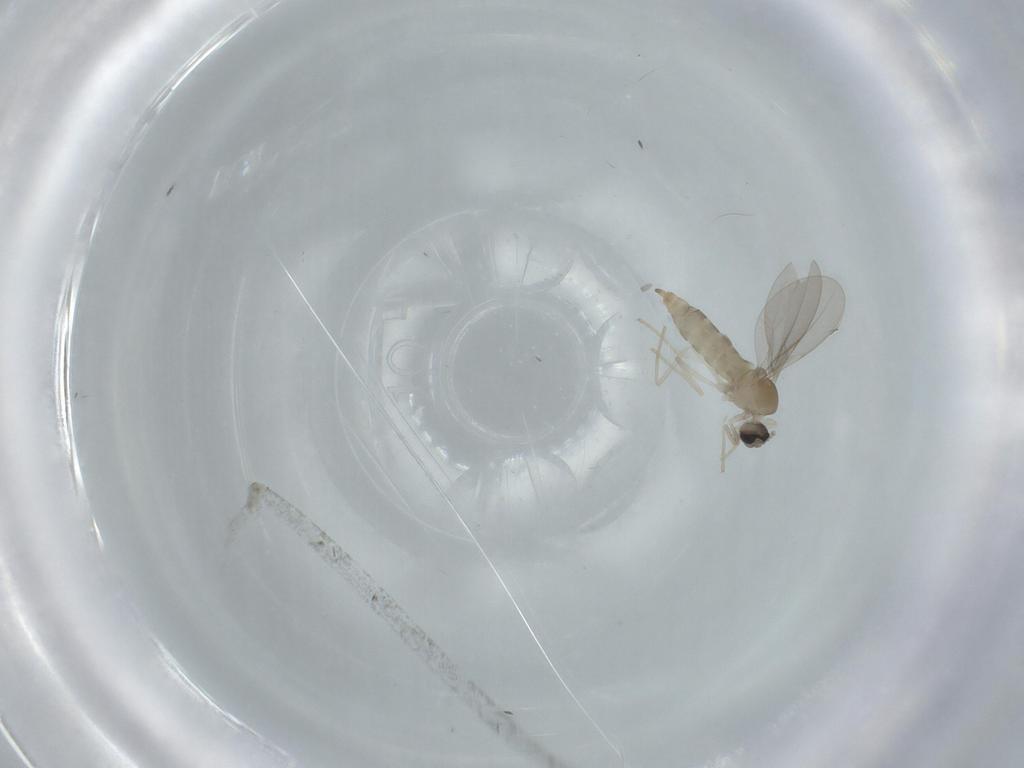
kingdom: Animalia
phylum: Arthropoda
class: Insecta
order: Diptera
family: Cecidomyiidae
